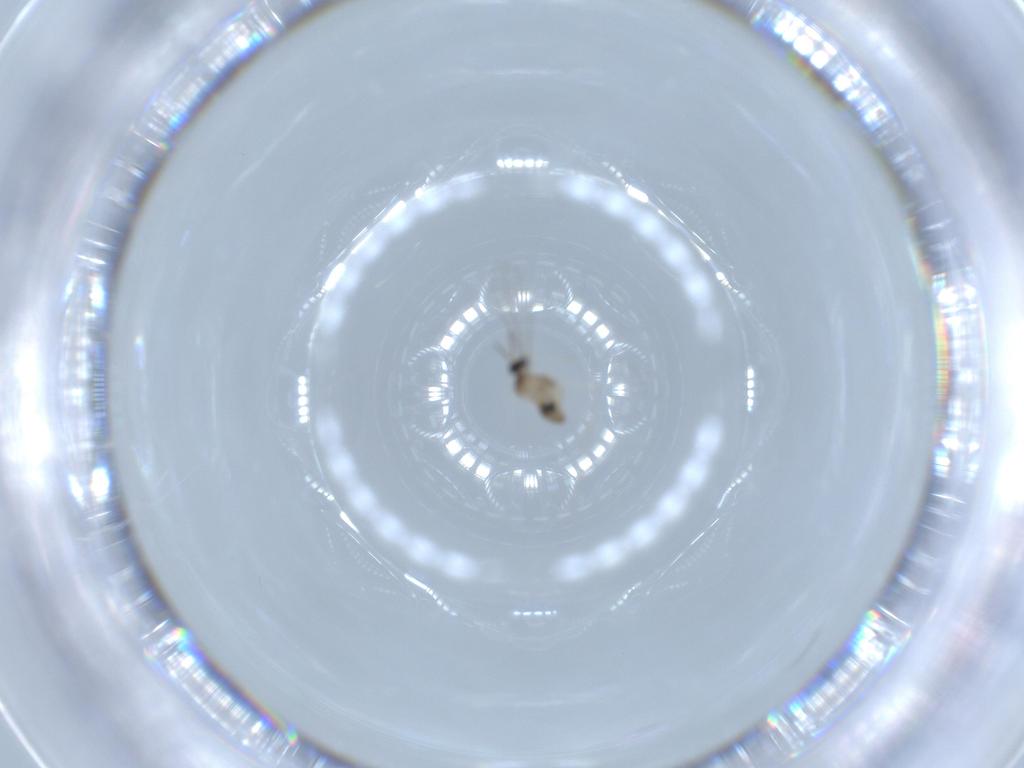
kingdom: Animalia
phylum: Arthropoda
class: Insecta
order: Diptera
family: Cecidomyiidae
